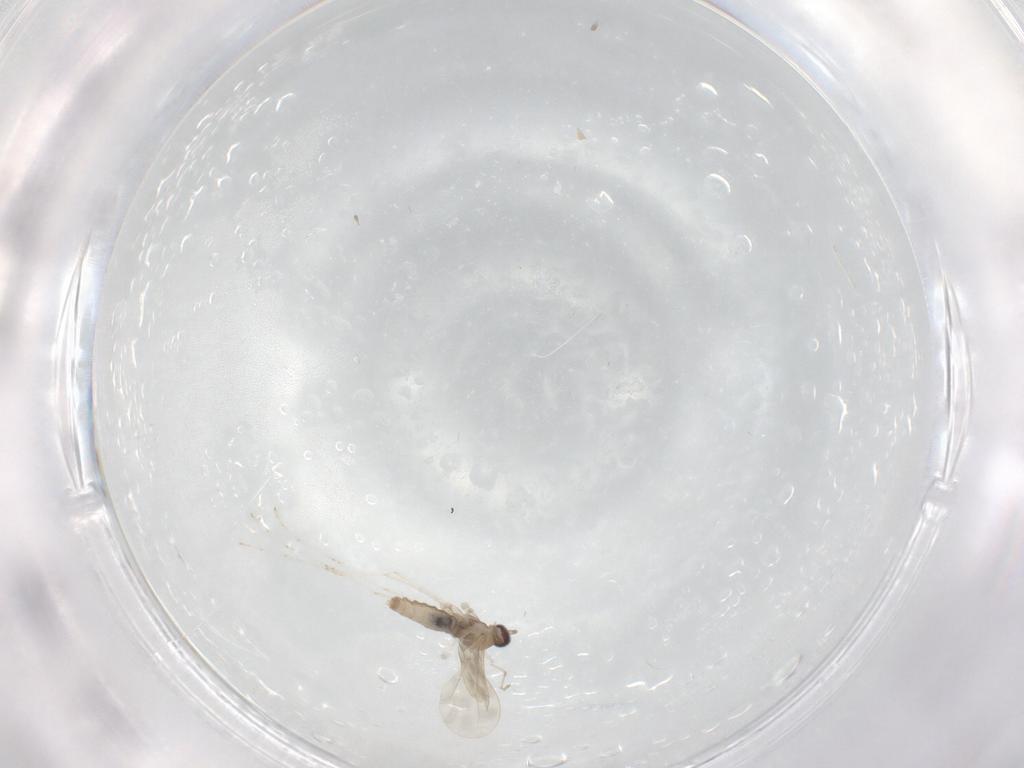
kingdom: Animalia
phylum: Arthropoda
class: Insecta
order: Diptera
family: Cecidomyiidae
